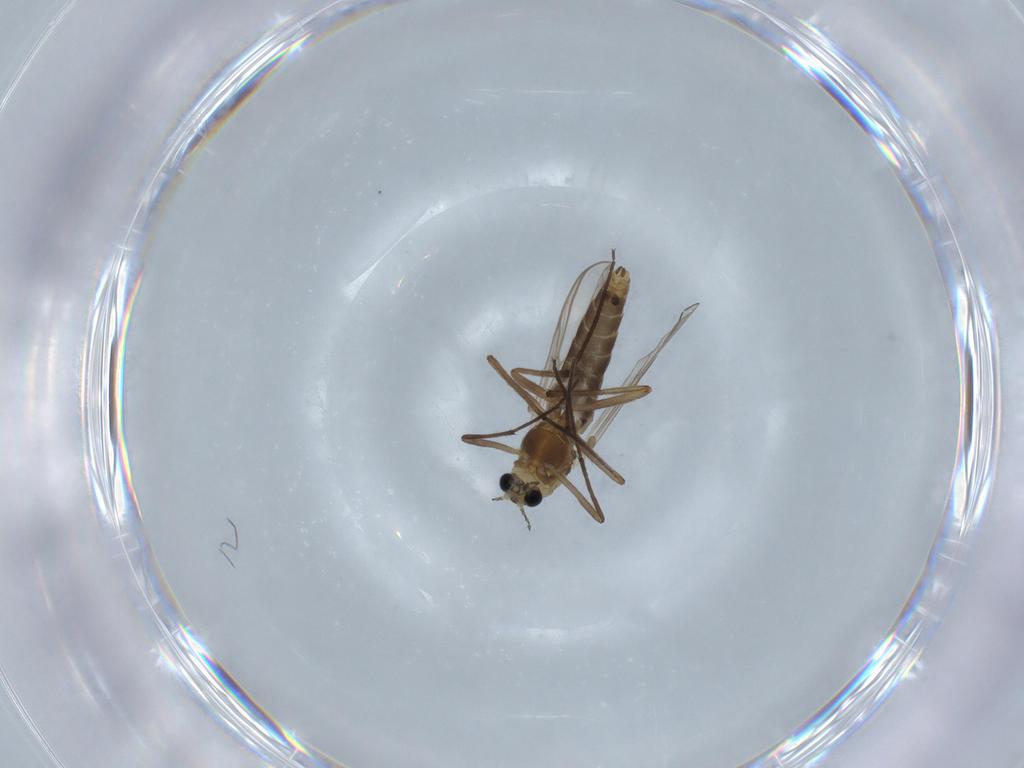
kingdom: Animalia
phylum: Arthropoda
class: Insecta
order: Diptera
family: Chironomidae
